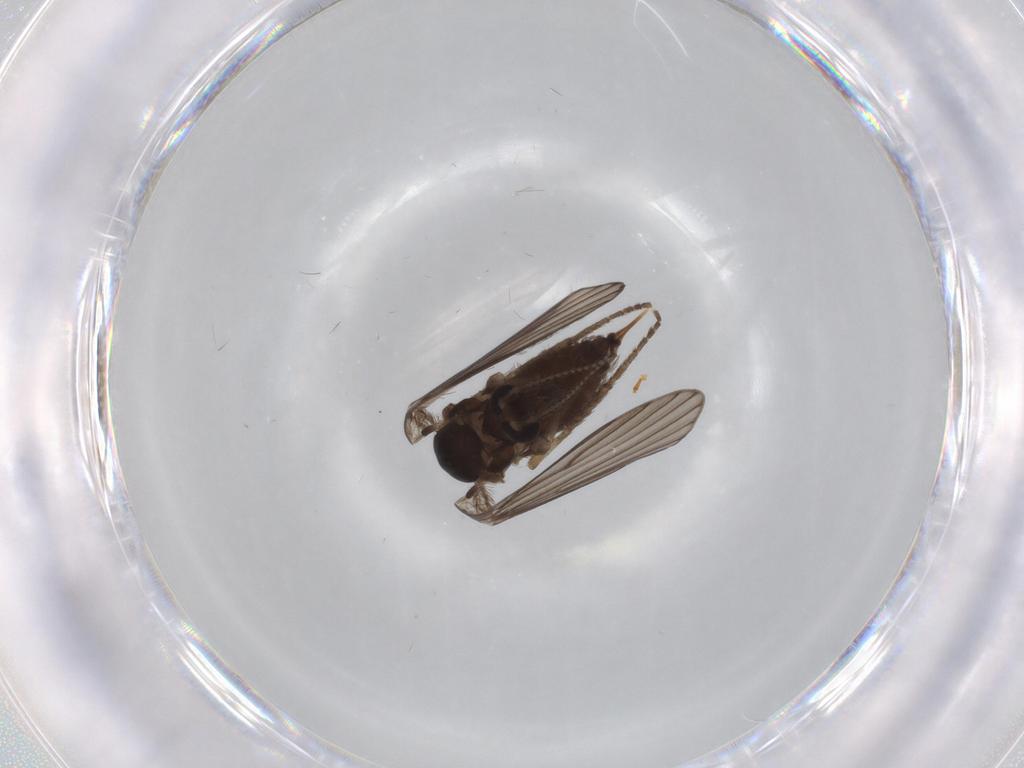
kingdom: Animalia
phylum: Arthropoda
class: Insecta
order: Diptera
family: Psychodidae
